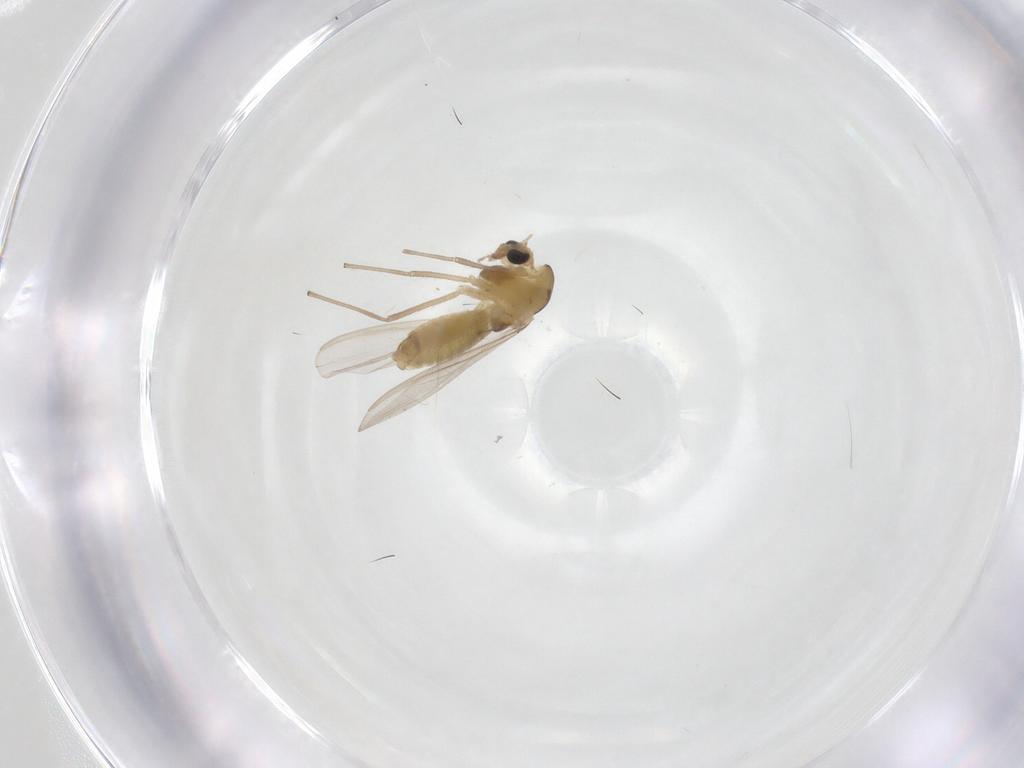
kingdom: Animalia
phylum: Arthropoda
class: Insecta
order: Diptera
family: Chironomidae
